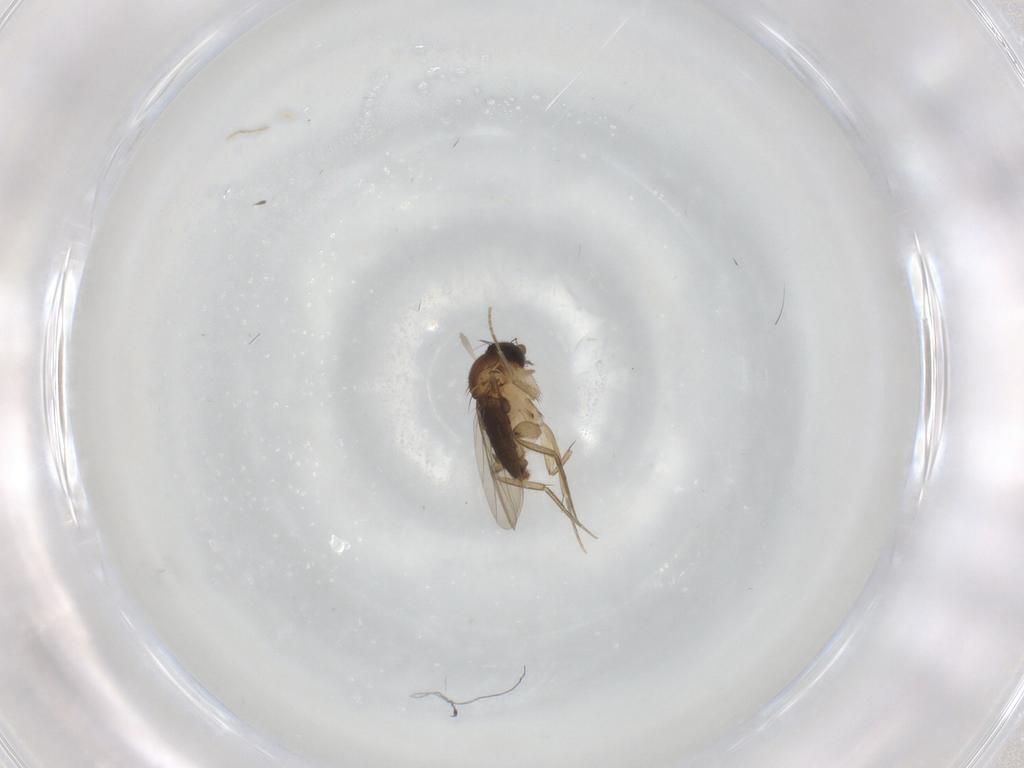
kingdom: Animalia
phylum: Arthropoda
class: Insecta
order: Diptera
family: Phoridae
